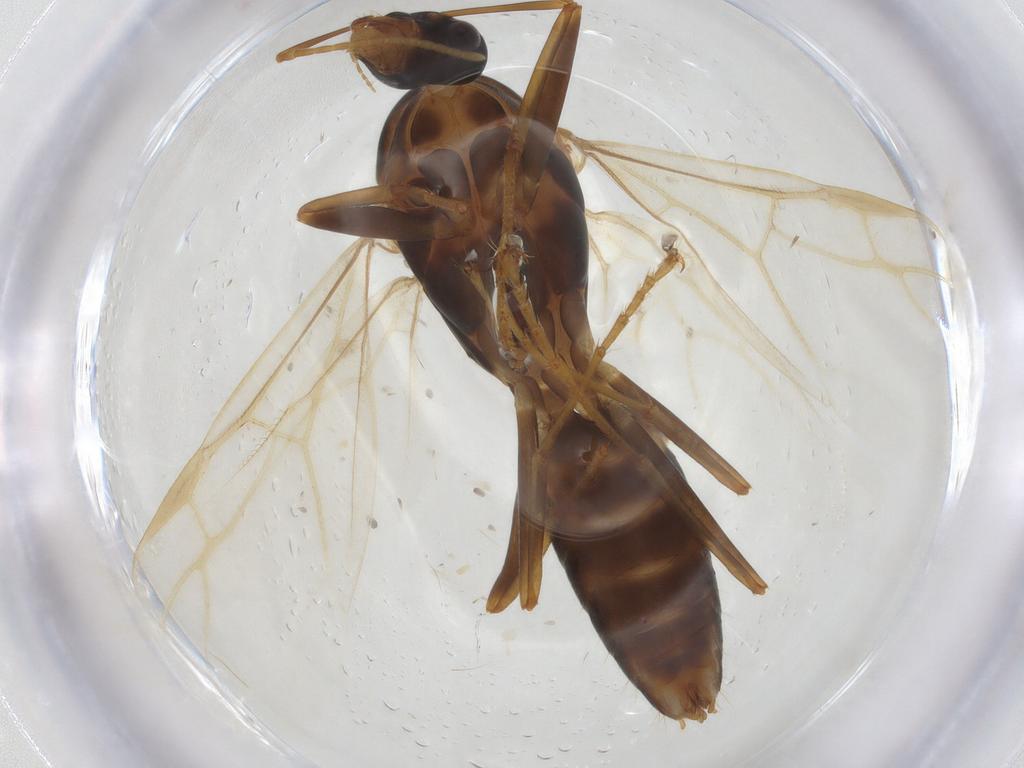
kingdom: Animalia
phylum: Arthropoda
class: Insecta
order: Hymenoptera
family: Formicidae
